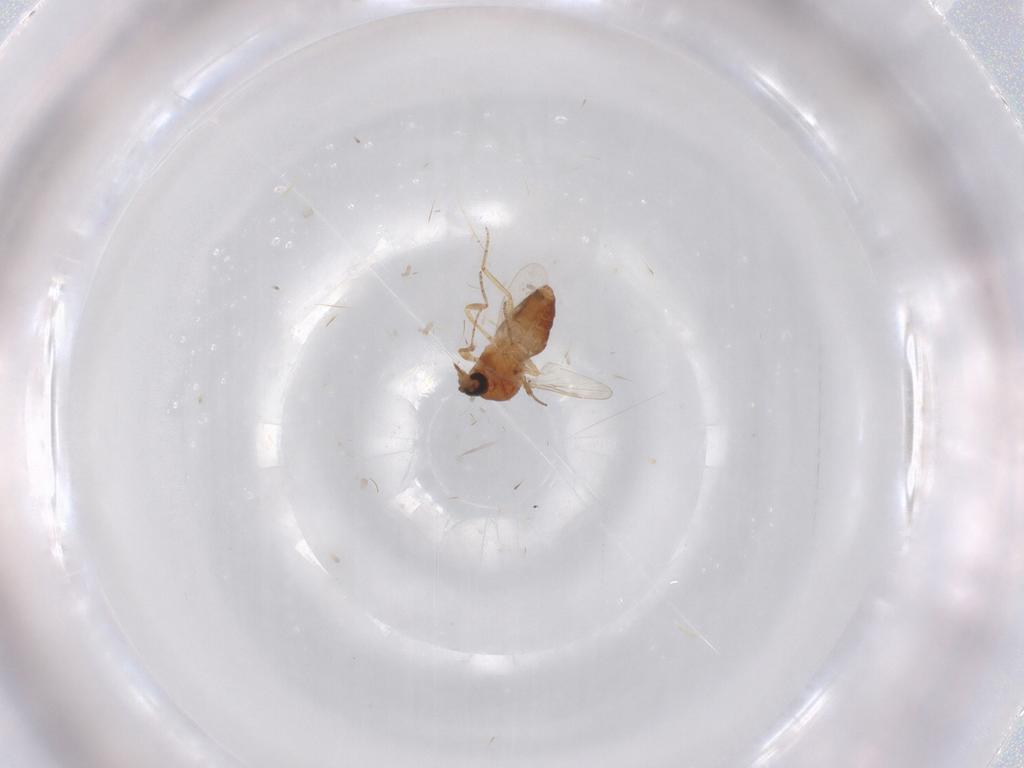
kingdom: Animalia
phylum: Arthropoda
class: Insecta
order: Diptera
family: Ceratopogonidae
